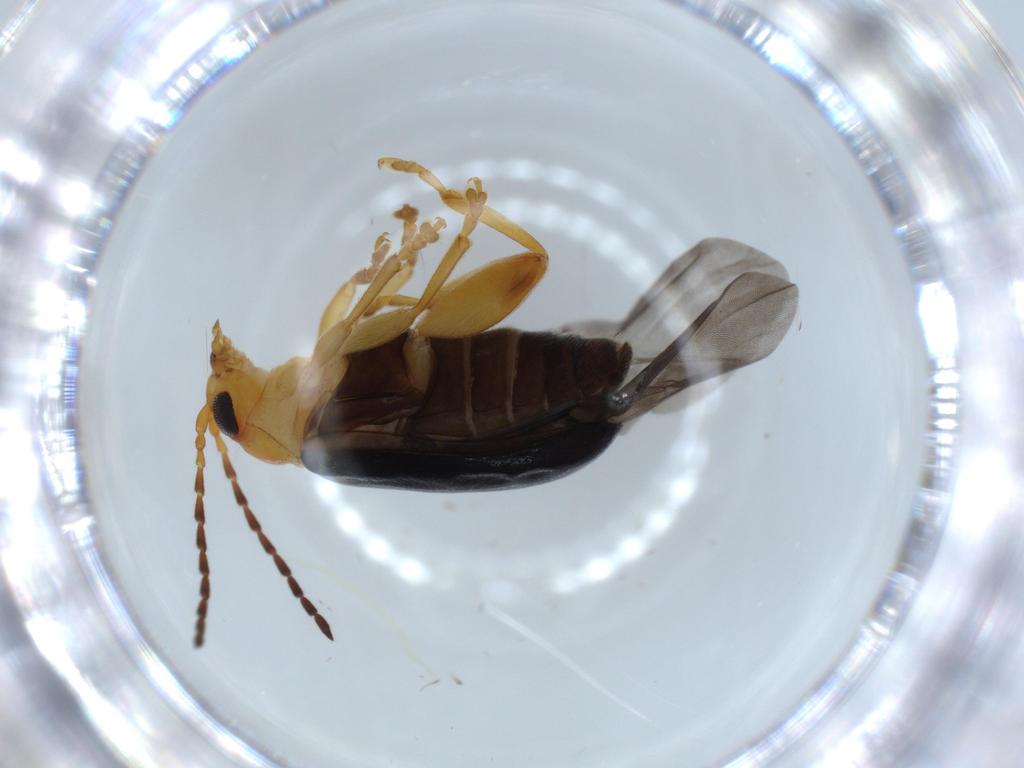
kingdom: Animalia
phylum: Arthropoda
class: Insecta
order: Coleoptera
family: Chrysomelidae
